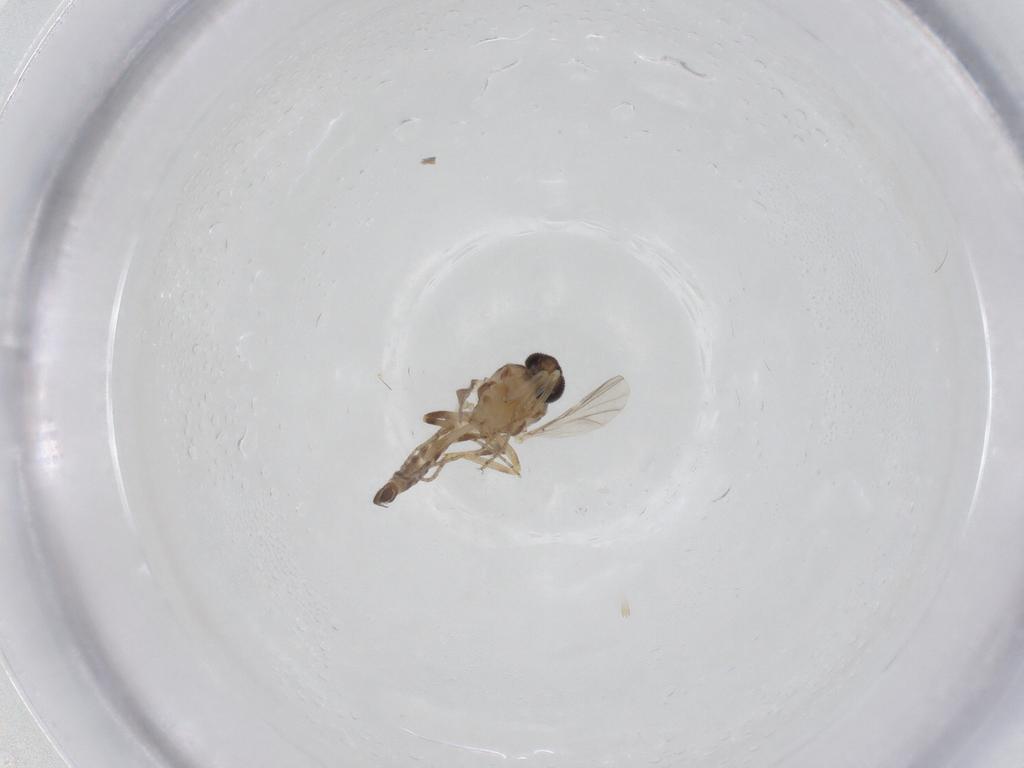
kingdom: Animalia
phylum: Arthropoda
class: Insecta
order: Diptera
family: Ceratopogonidae
